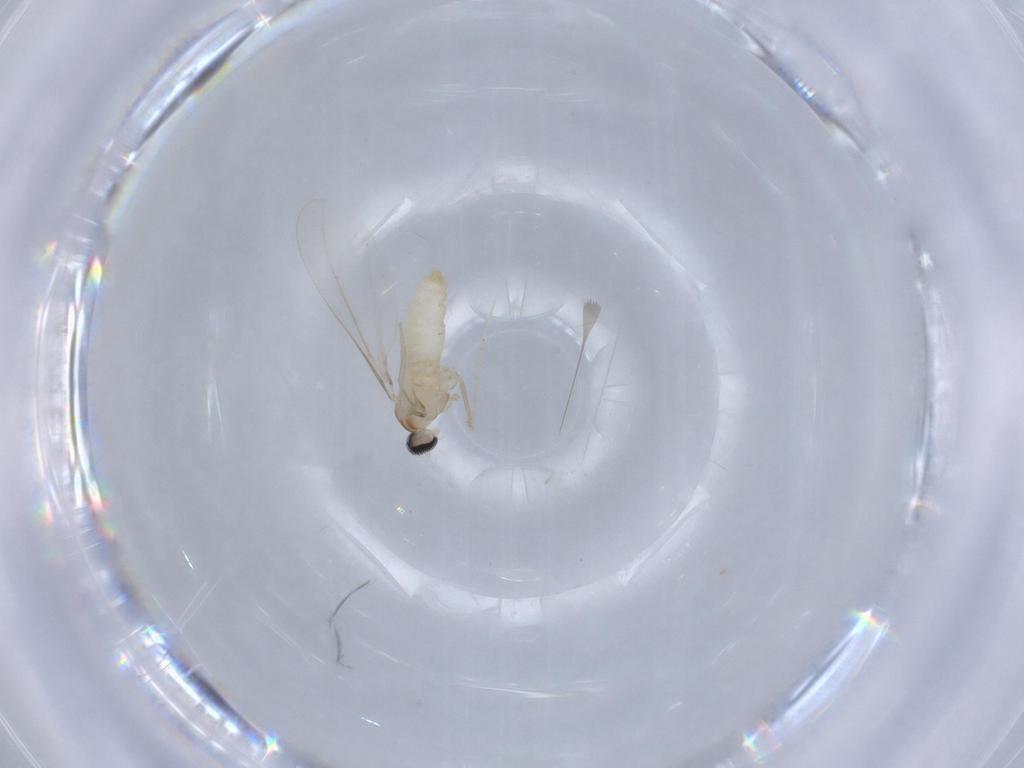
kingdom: Animalia
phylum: Arthropoda
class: Insecta
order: Diptera
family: Cecidomyiidae
